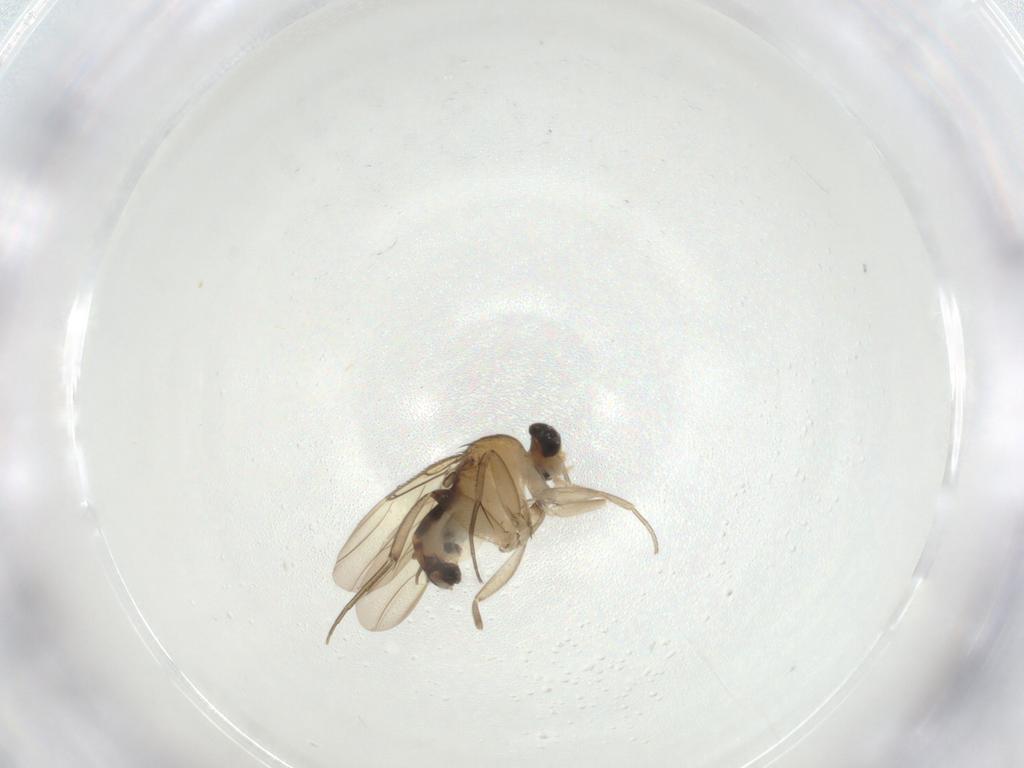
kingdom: Animalia
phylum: Arthropoda
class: Insecta
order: Diptera
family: Phoridae
